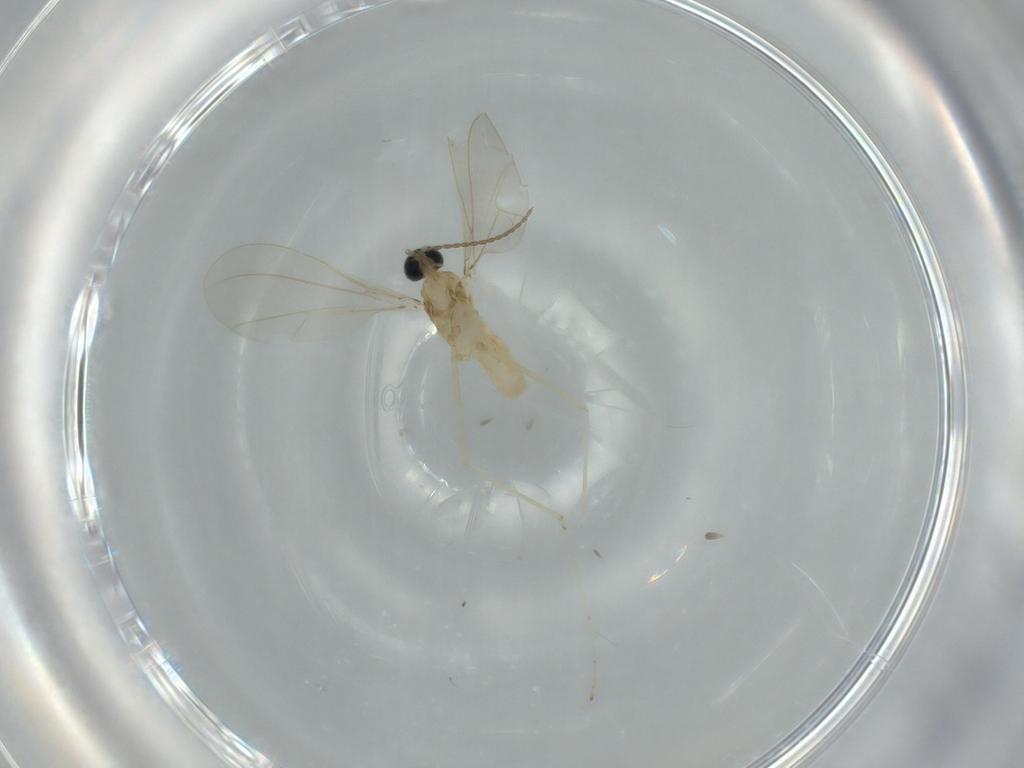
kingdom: Animalia
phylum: Arthropoda
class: Insecta
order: Diptera
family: Cecidomyiidae
